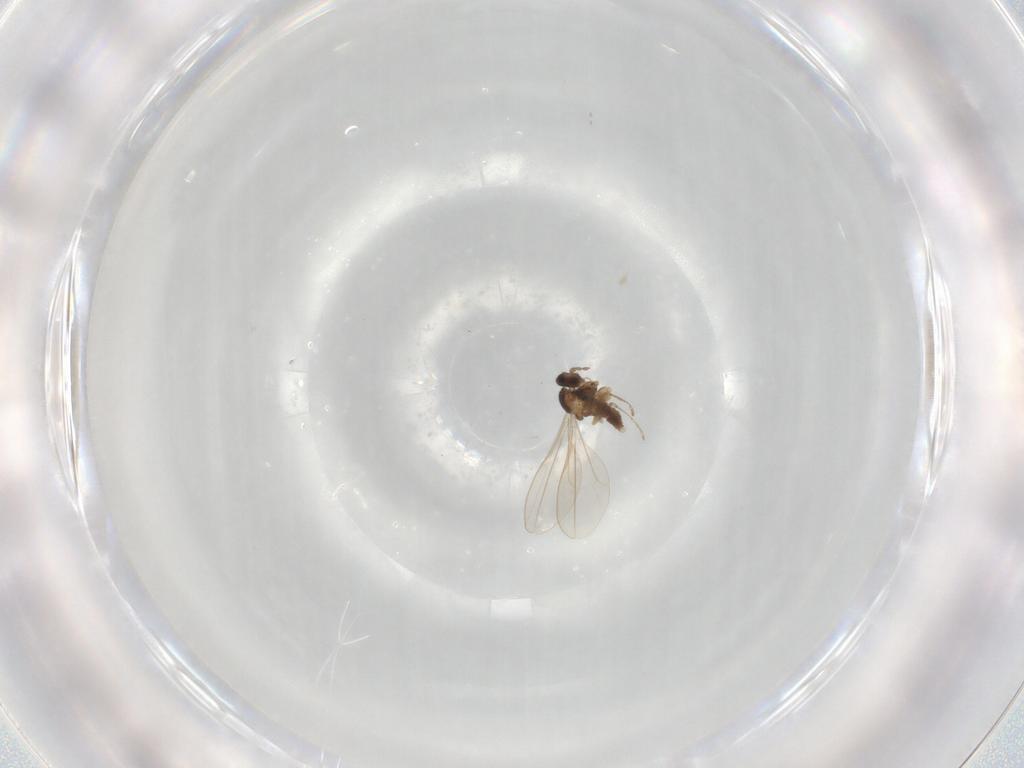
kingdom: Animalia
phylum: Arthropoda
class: Insecta
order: Diptera
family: Cecidomyiidae
